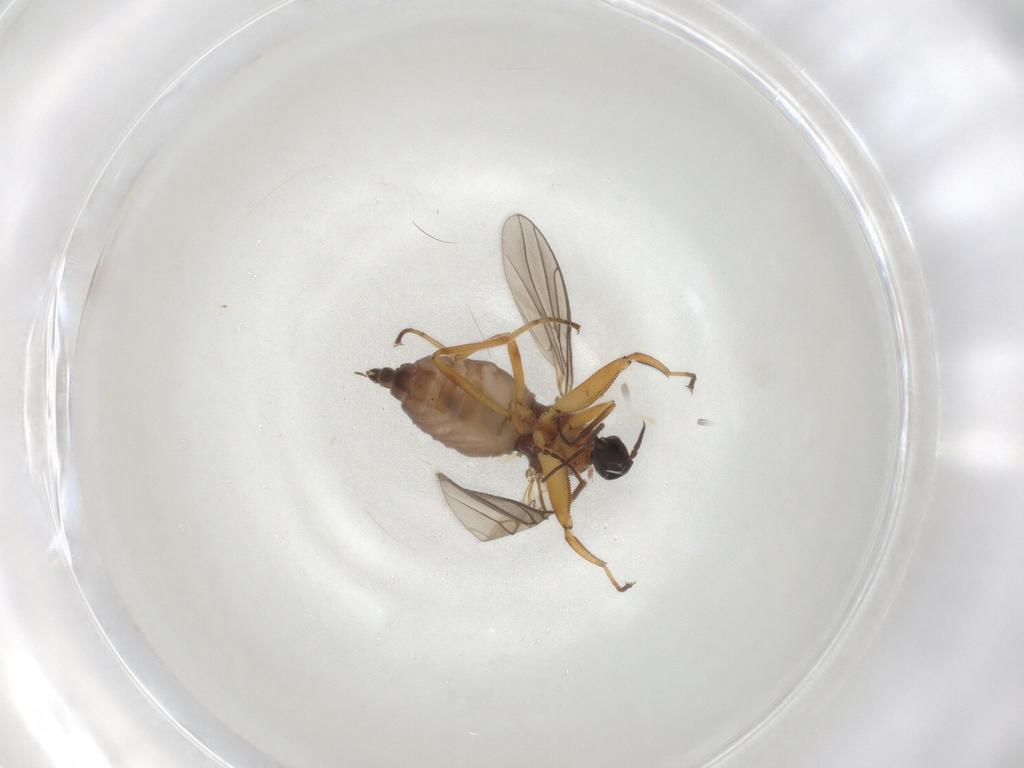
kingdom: Animalia
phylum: Arthropoda
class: Insecta
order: Diptera
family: Hybotidae
